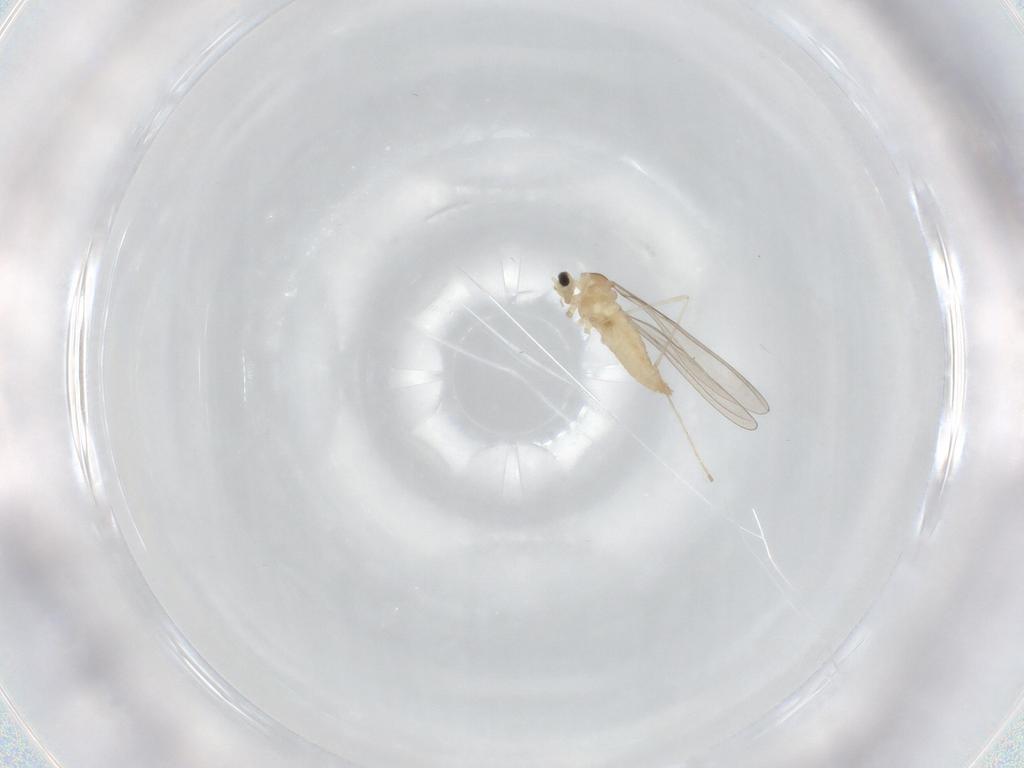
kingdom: Animalia
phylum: Arthropoda
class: Insecta
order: Diptera
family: Cecidomyiidae
